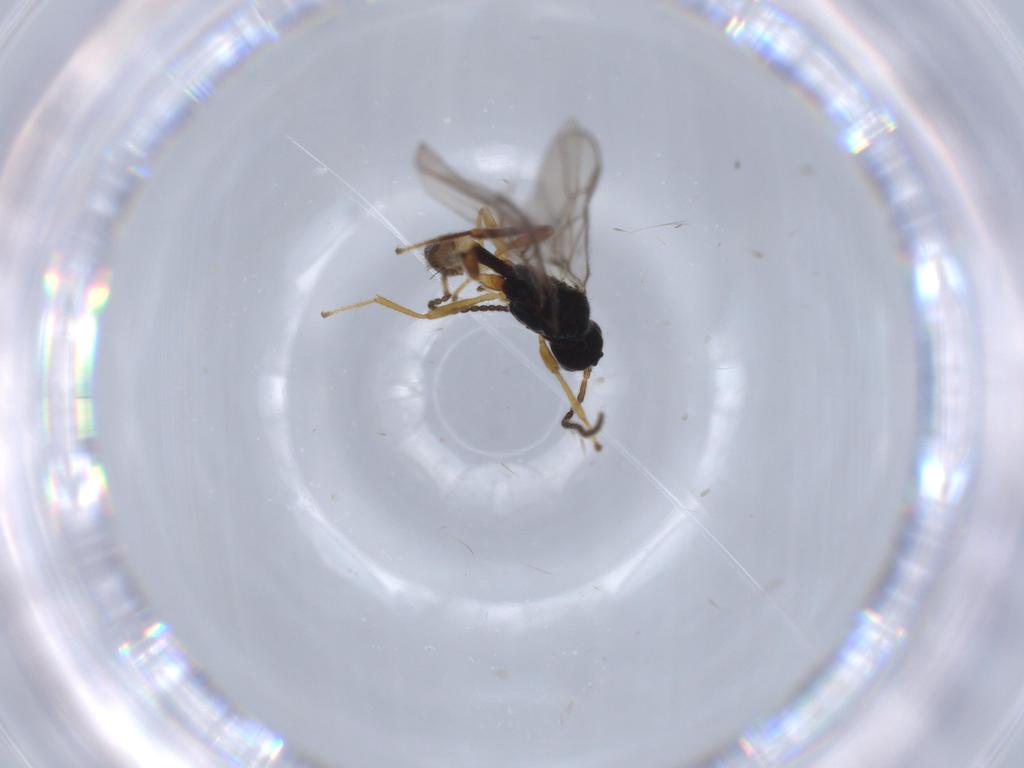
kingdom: Animalia
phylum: Arthropoda
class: Insecta
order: Hymenoptera
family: Braconidae
